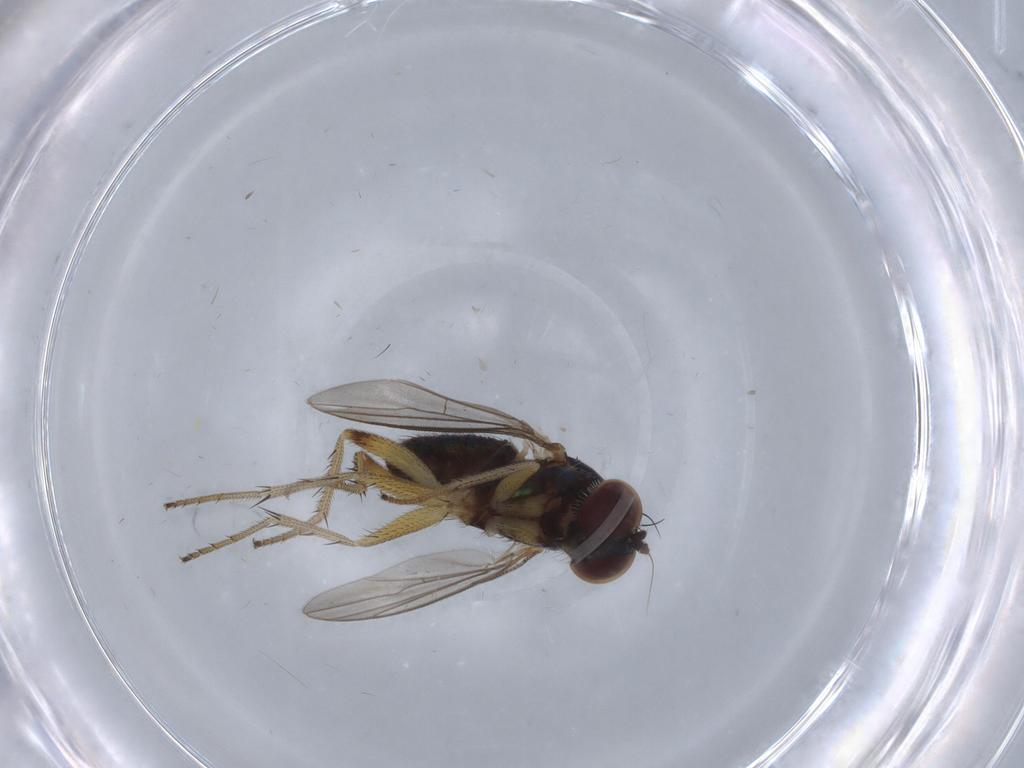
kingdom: Animalia
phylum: Arthropoda
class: Insecta
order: Diptera
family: Dolichopodidae
